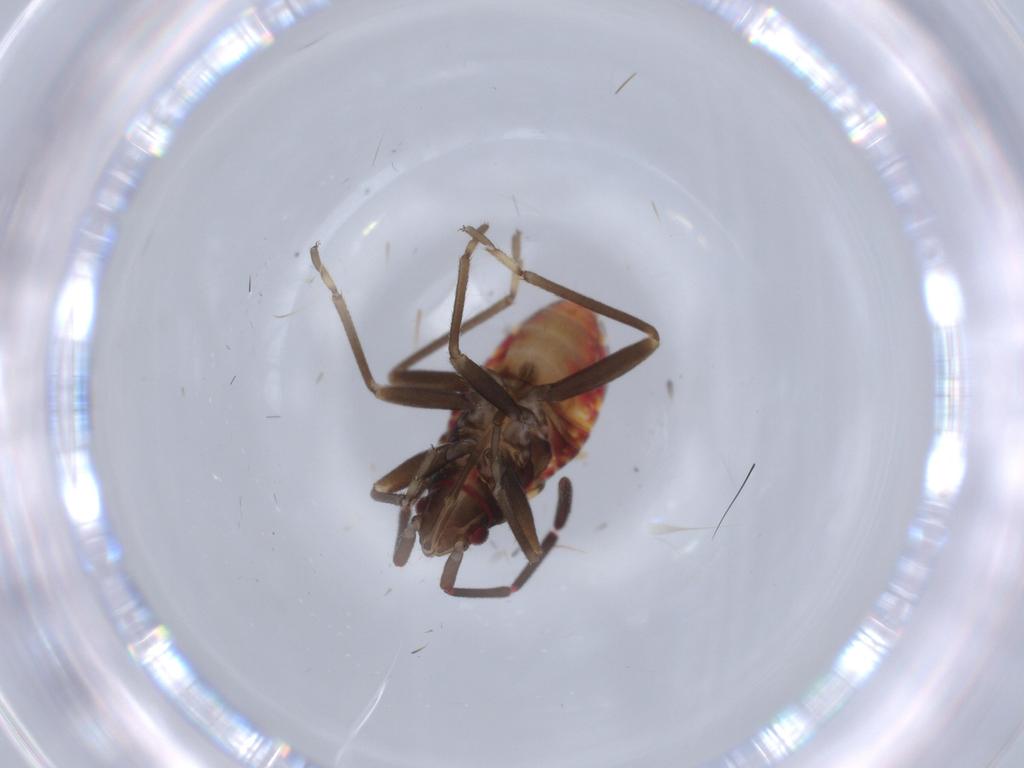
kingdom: Animalia
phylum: Arthropoda
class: Insecta
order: Hemiptera
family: Rhyparochromidae
